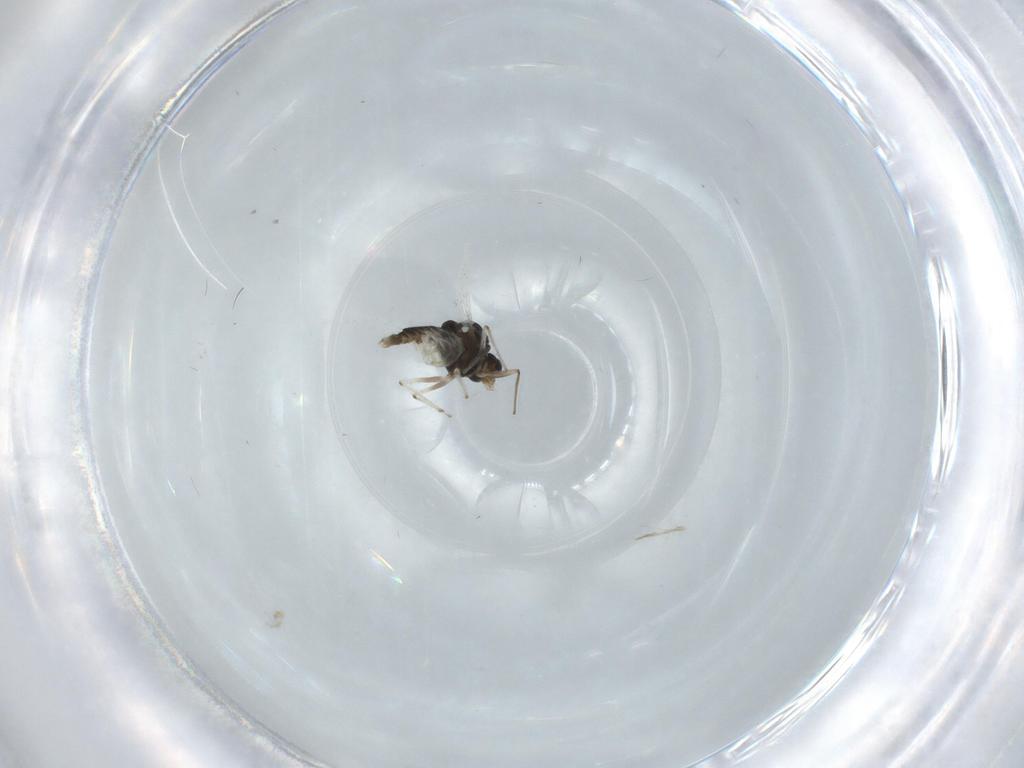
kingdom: Animalia
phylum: Arthropoda
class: Insecta
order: Diptera
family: Chironomidae
